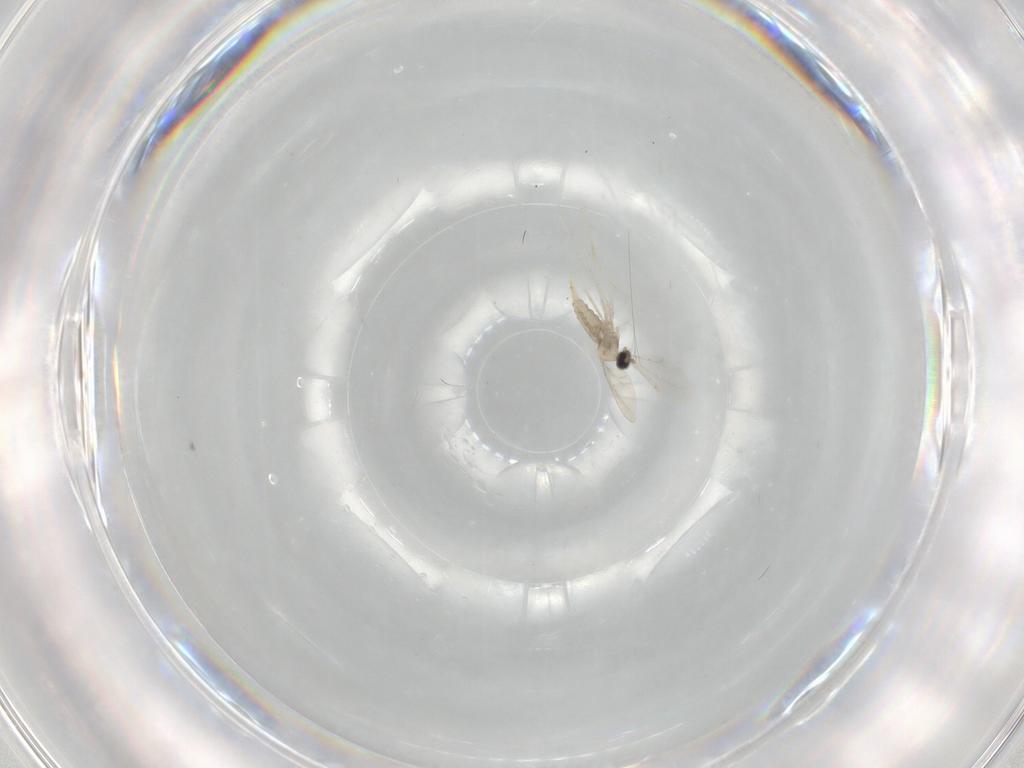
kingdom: Animalia
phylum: Arthropoda
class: Insecta
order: Diptera
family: Cecidomyiidae
